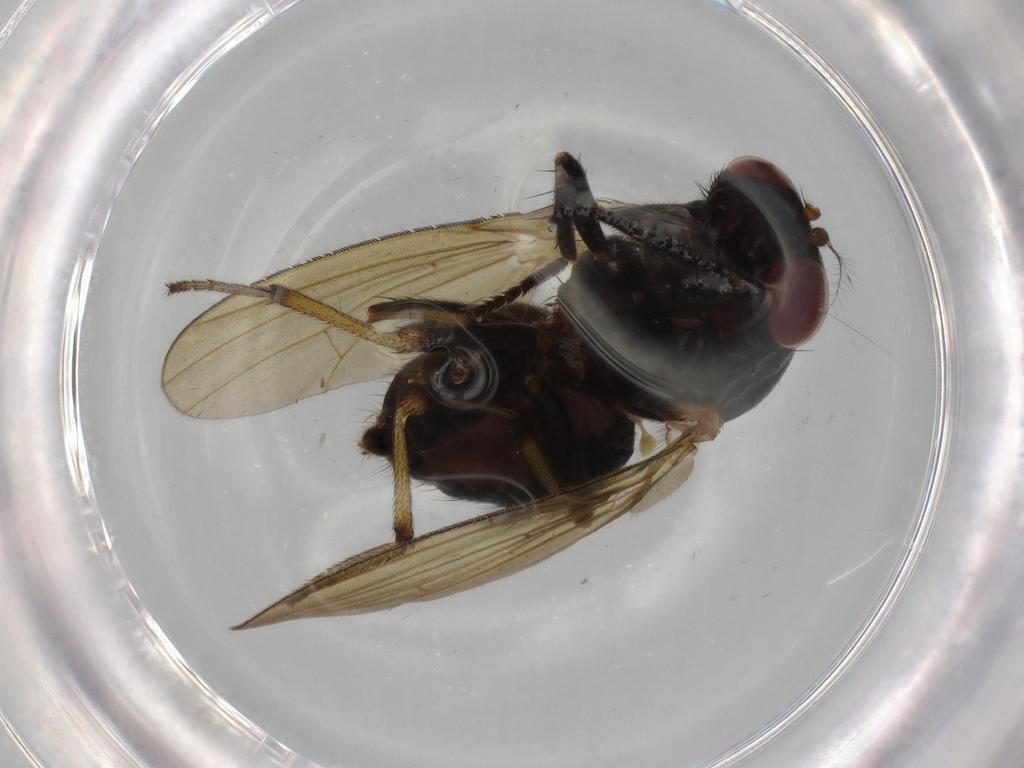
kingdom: Animalia
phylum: Arthropoda
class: Insecta
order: Diptera
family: Cecidomyiidae
